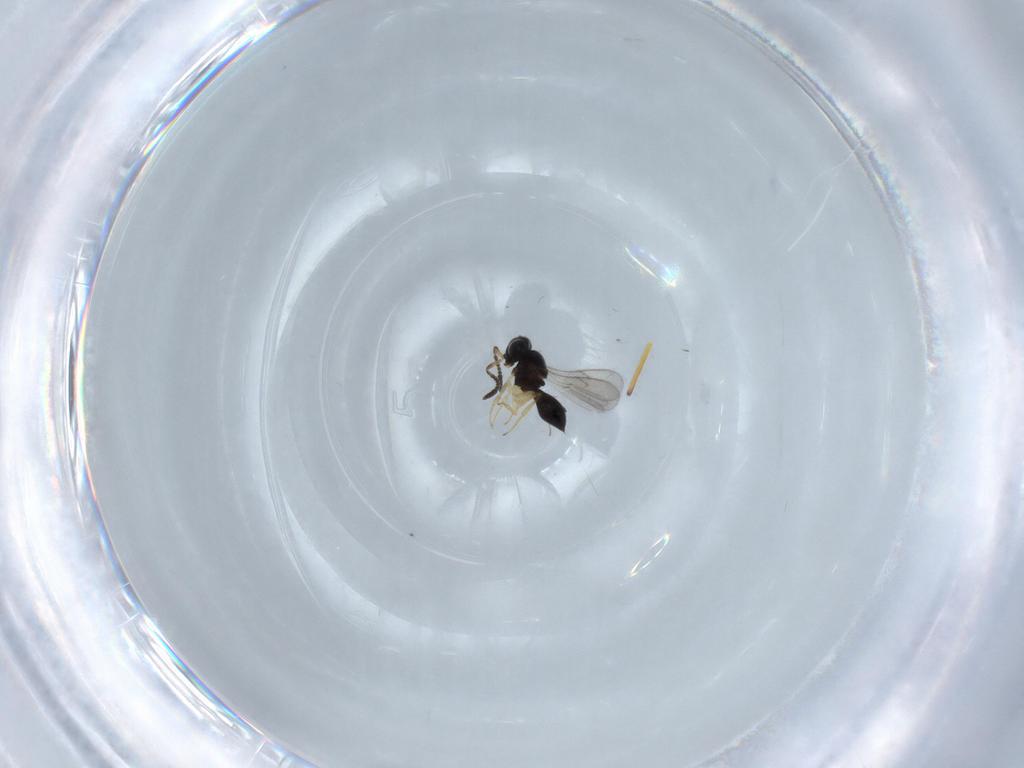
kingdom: Animalia
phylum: Arthropoda
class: Insecta
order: Hymenoptera
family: Scelionidae
